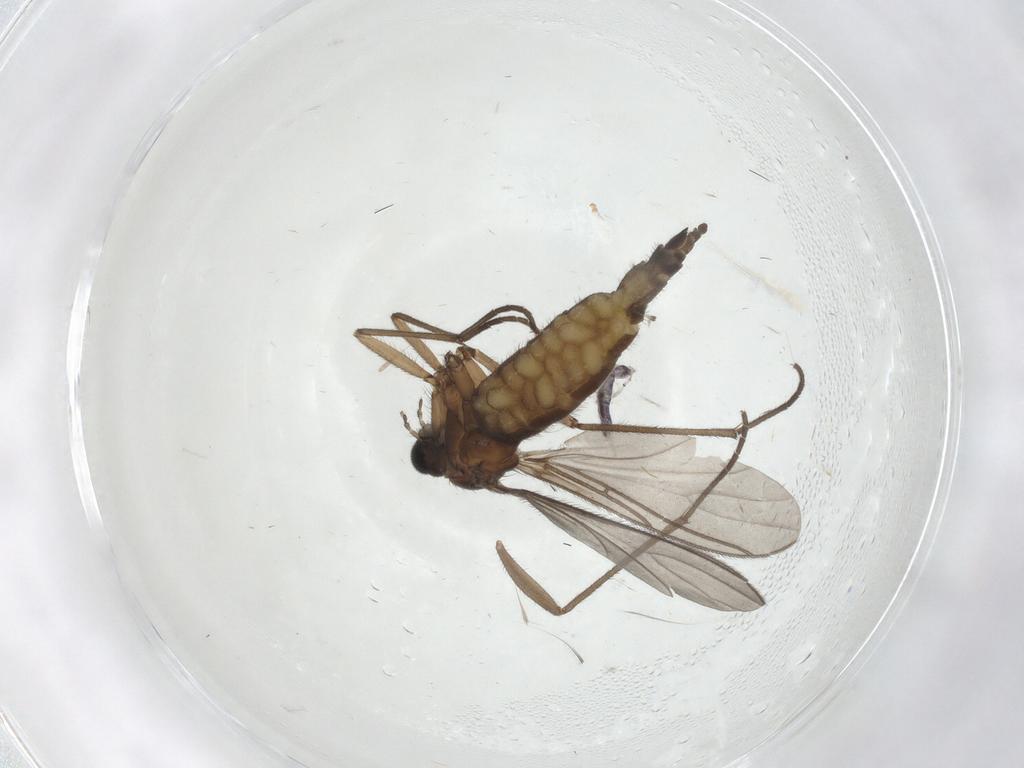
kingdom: Animalia
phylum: Arthropoda
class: Insecta
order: Diptera
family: Sciaridae
